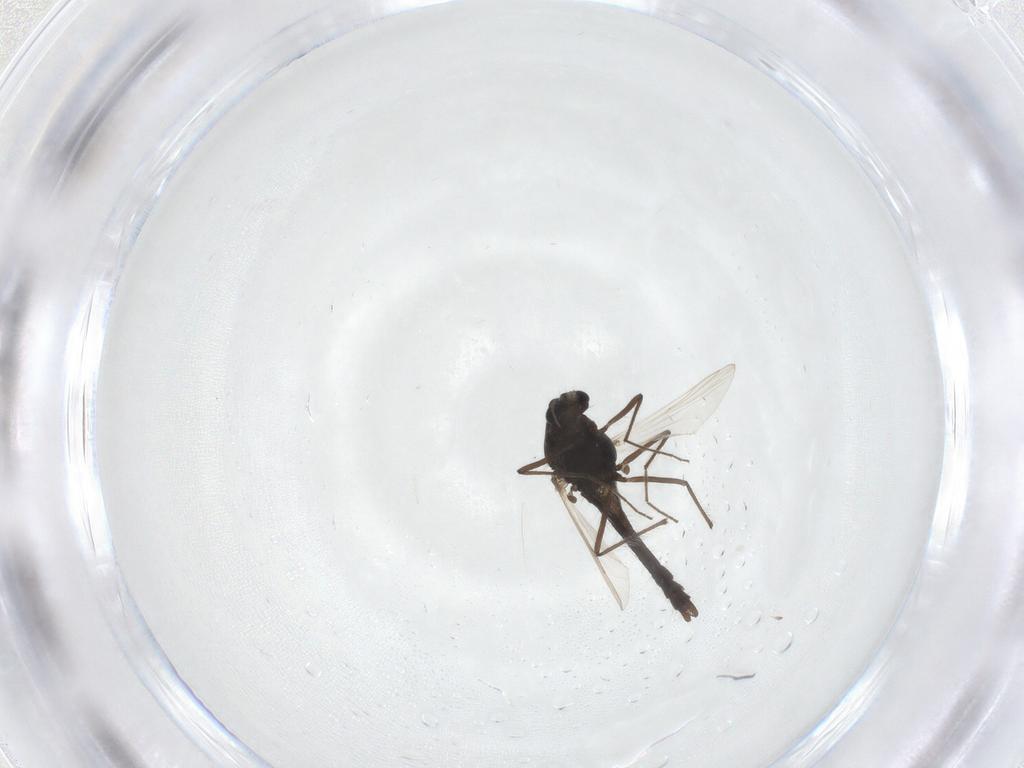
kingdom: Animalia
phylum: Arthropoda
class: Insecta
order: Diptera
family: Chironomidae
